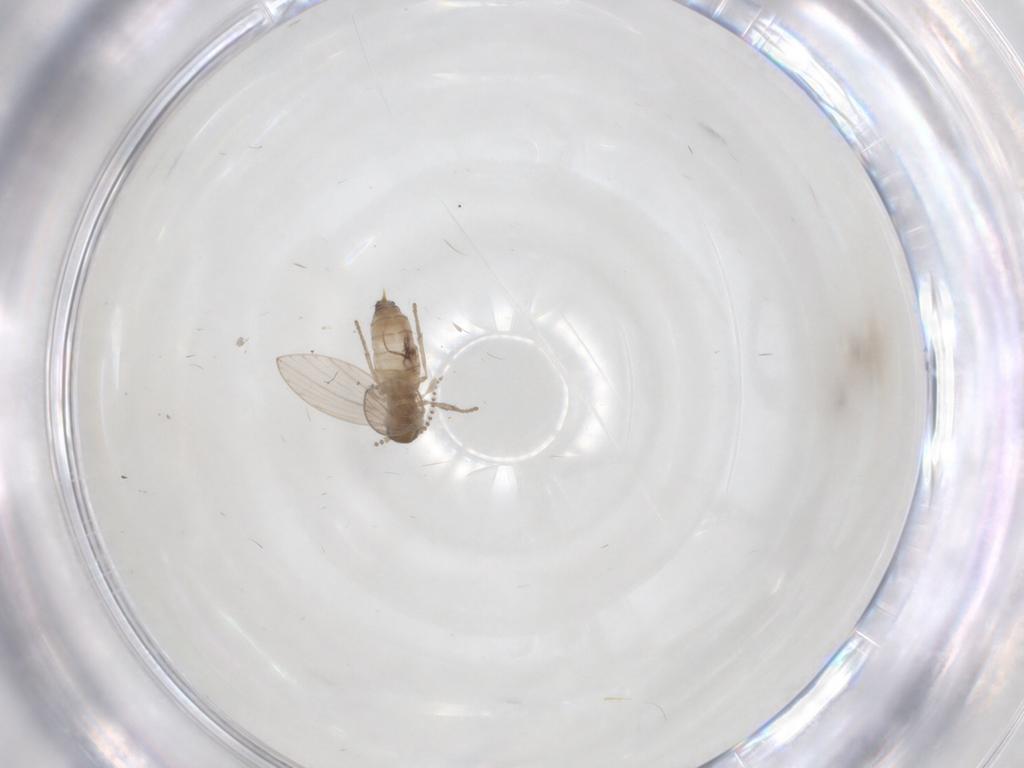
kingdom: Animalia
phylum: Arthropoda
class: Insecta
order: Diptera
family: Psychodidae
